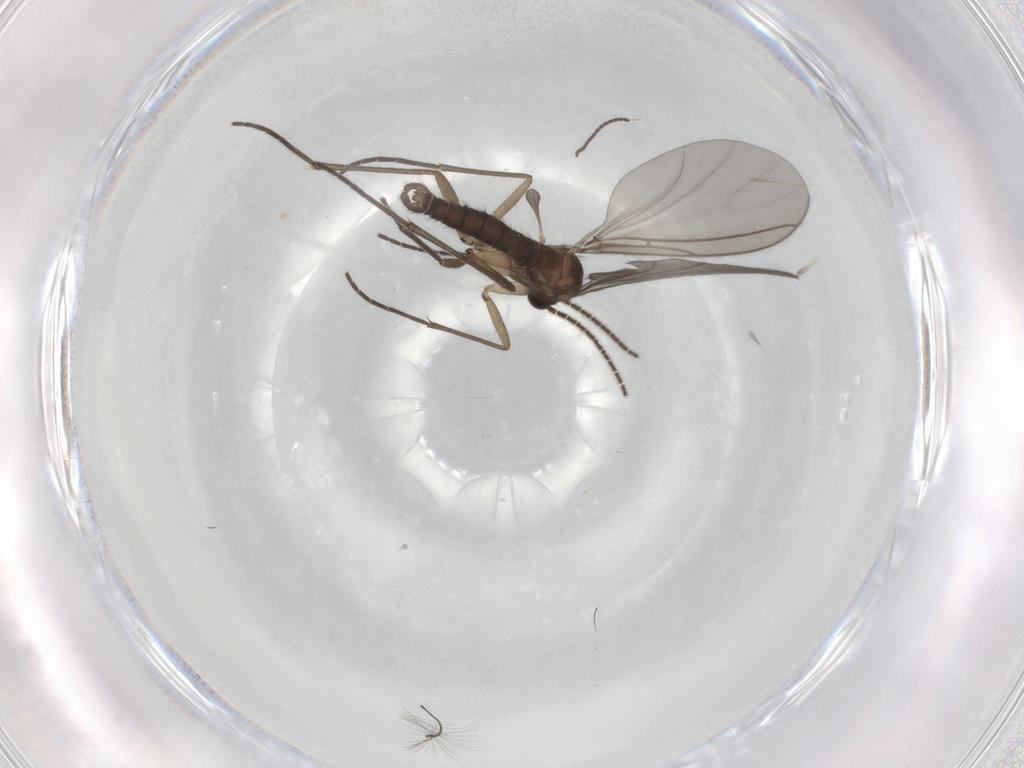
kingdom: Animalia
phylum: Arthropoda
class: Insecta
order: Diptera
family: Sciaridae
